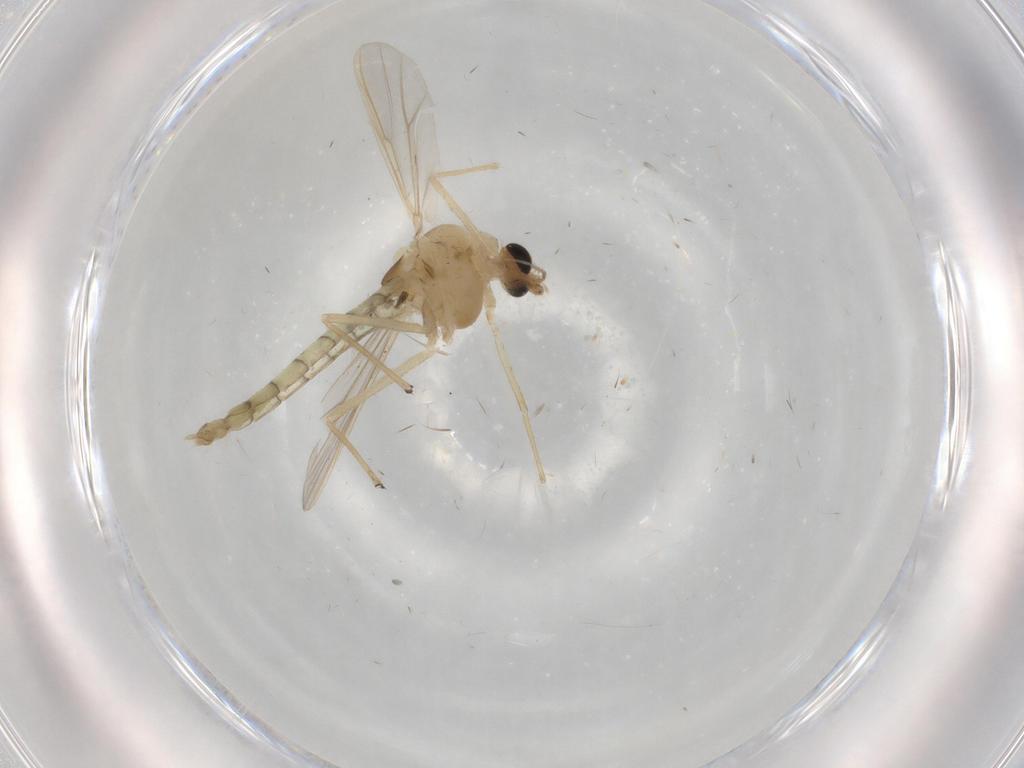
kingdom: Animalia
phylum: Arthropoda
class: Insecta
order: Diptera
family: Chironomidae
